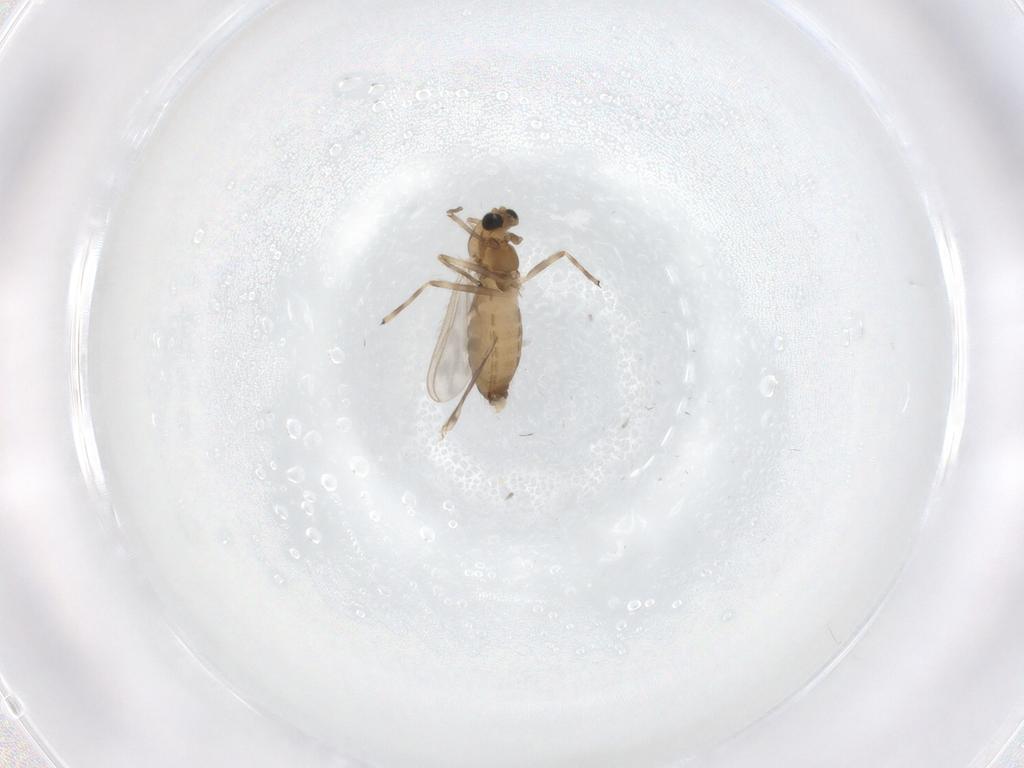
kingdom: Animalia
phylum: Arthropoda
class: Insecta
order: Diptera
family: Chironomidae
